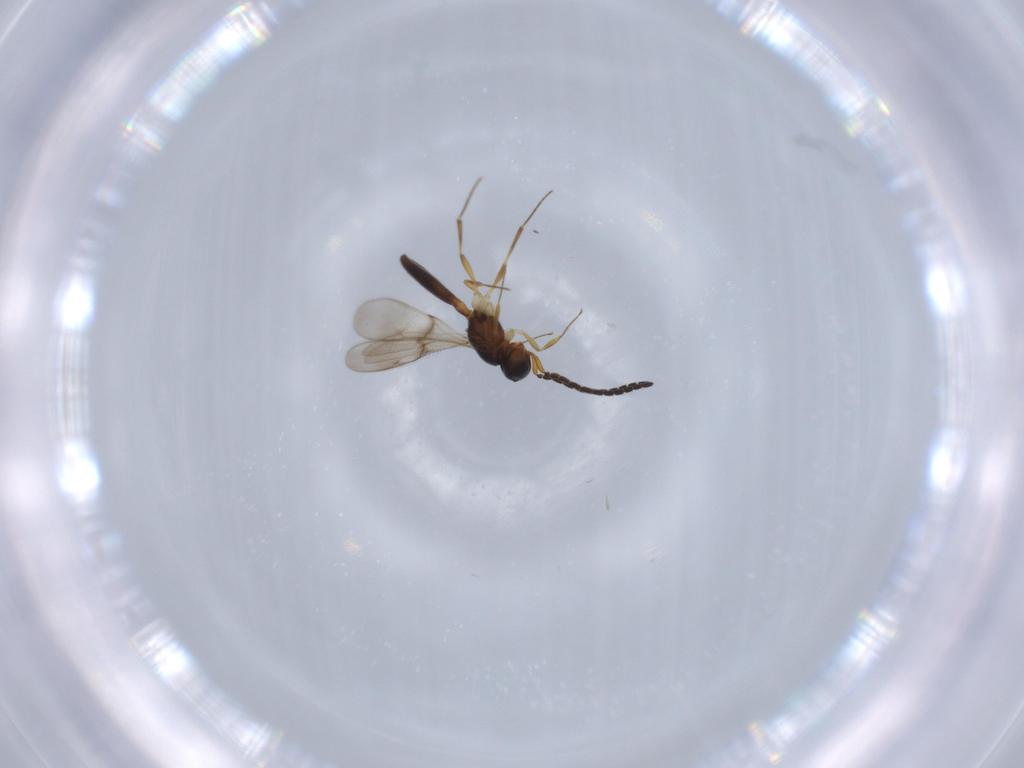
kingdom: Animalia
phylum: Arthropoda
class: Insecta
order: Hymenoptera
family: Scelionidae
